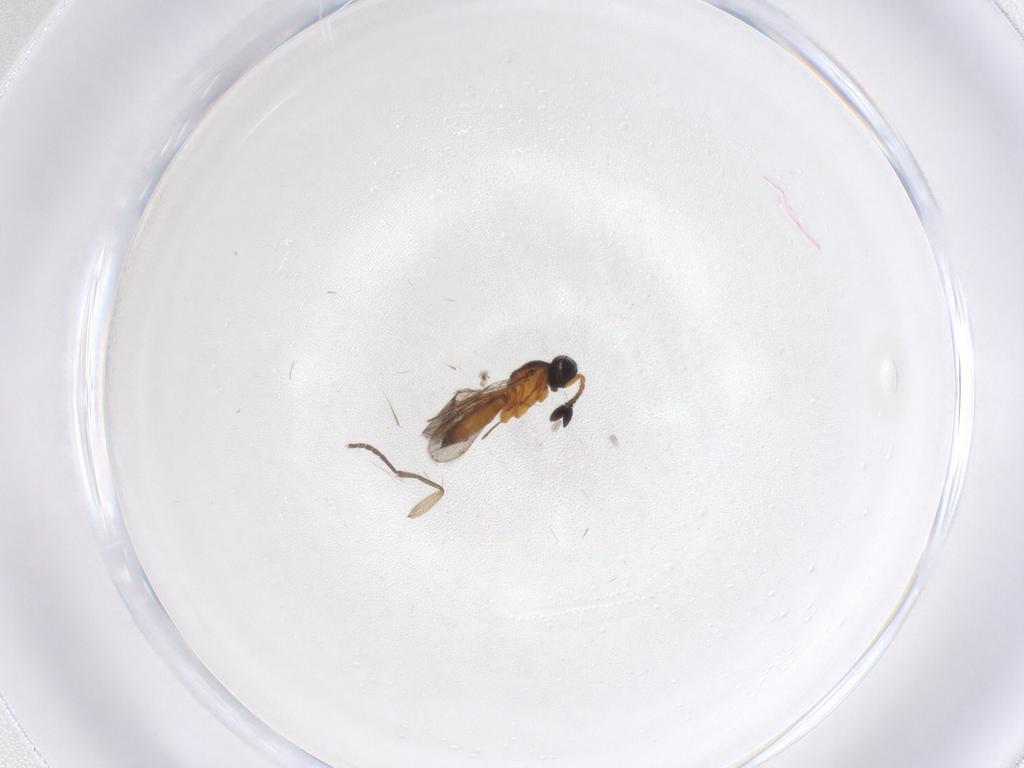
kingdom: Animalia
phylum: Arthropoda
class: Insecta
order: Hymenoptera
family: Scelionidae
